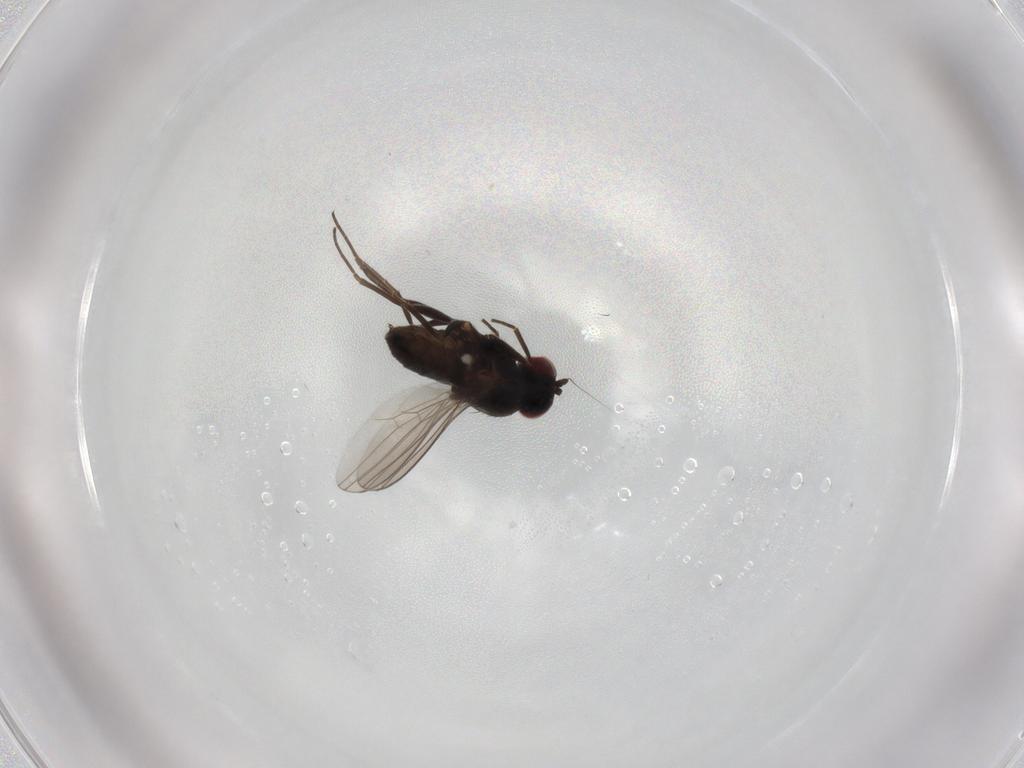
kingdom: Animalia
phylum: Arthropoda
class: Insecta
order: Diptera
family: Dolichopodidae
